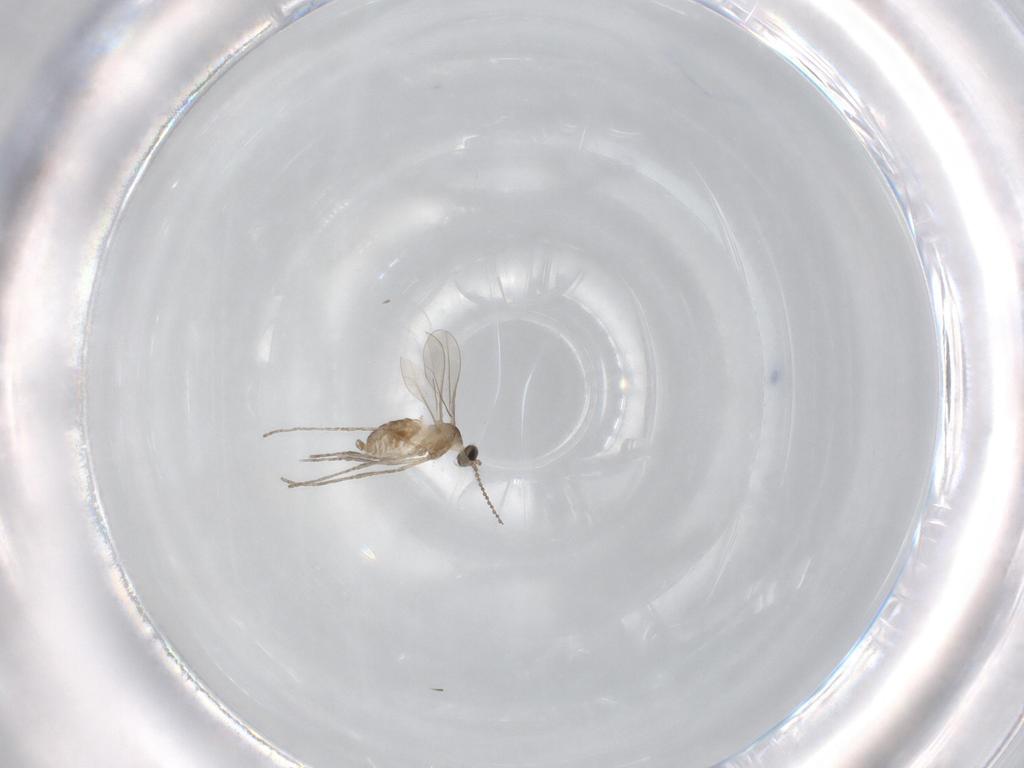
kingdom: Animalia
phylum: Arthropoda
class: Insecta
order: Diptera
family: Cecidomyiidae
